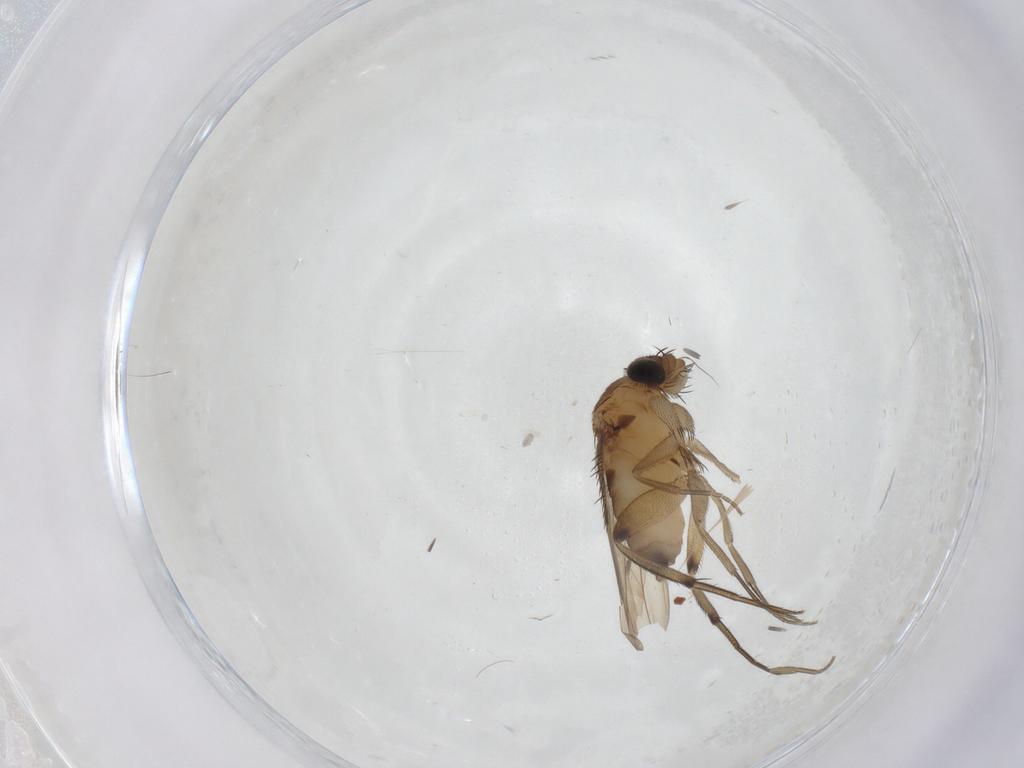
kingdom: Animalia
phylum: Arthropoda
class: Insecta
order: Diptera
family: Phoridae
